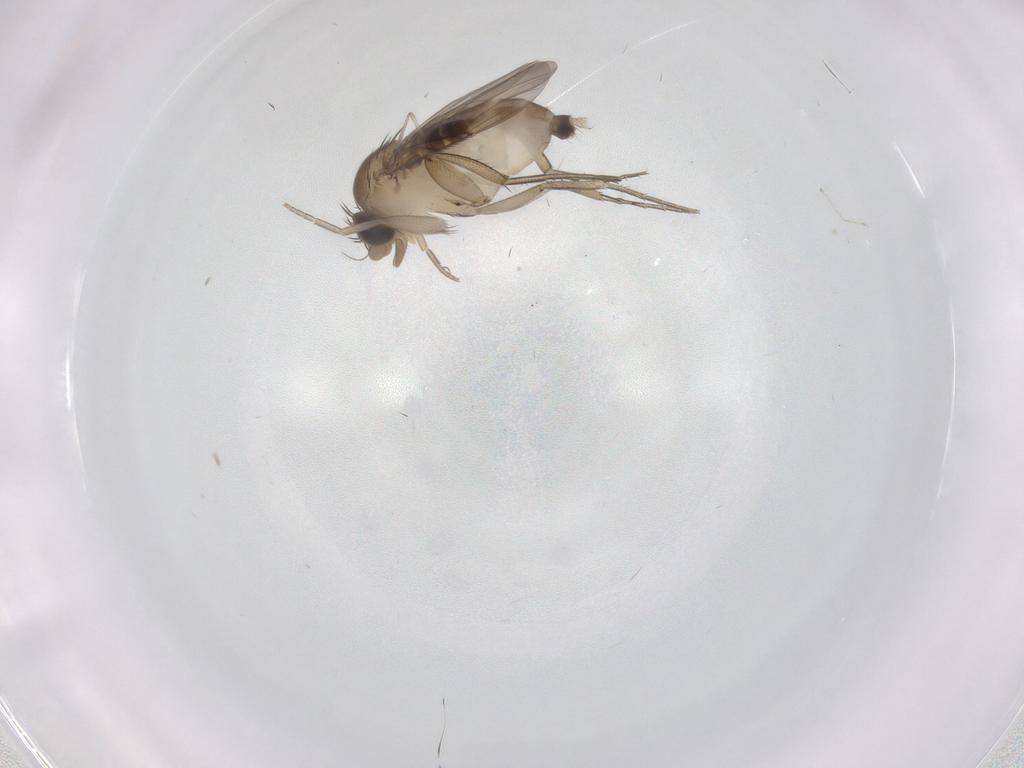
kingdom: Animalia
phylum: Arthropoda
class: Insecta
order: Diptera
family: Phoridae
